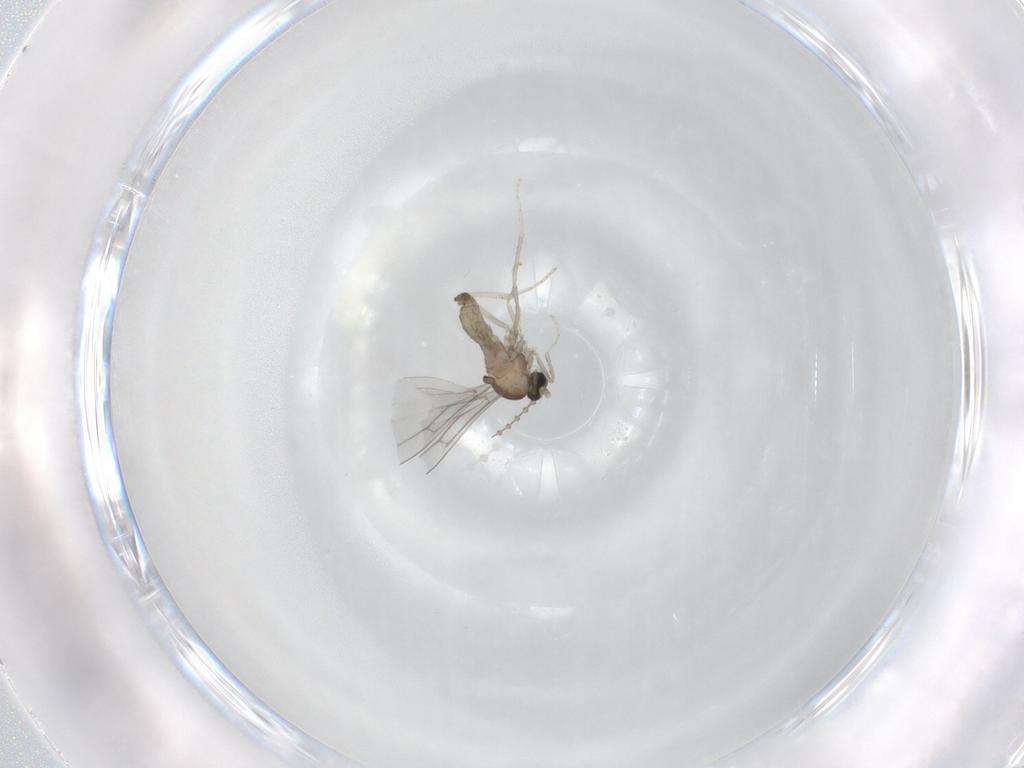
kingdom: Animalia
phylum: Arthropoda
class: Insecta
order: Diptera
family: Cecidomyiidae
